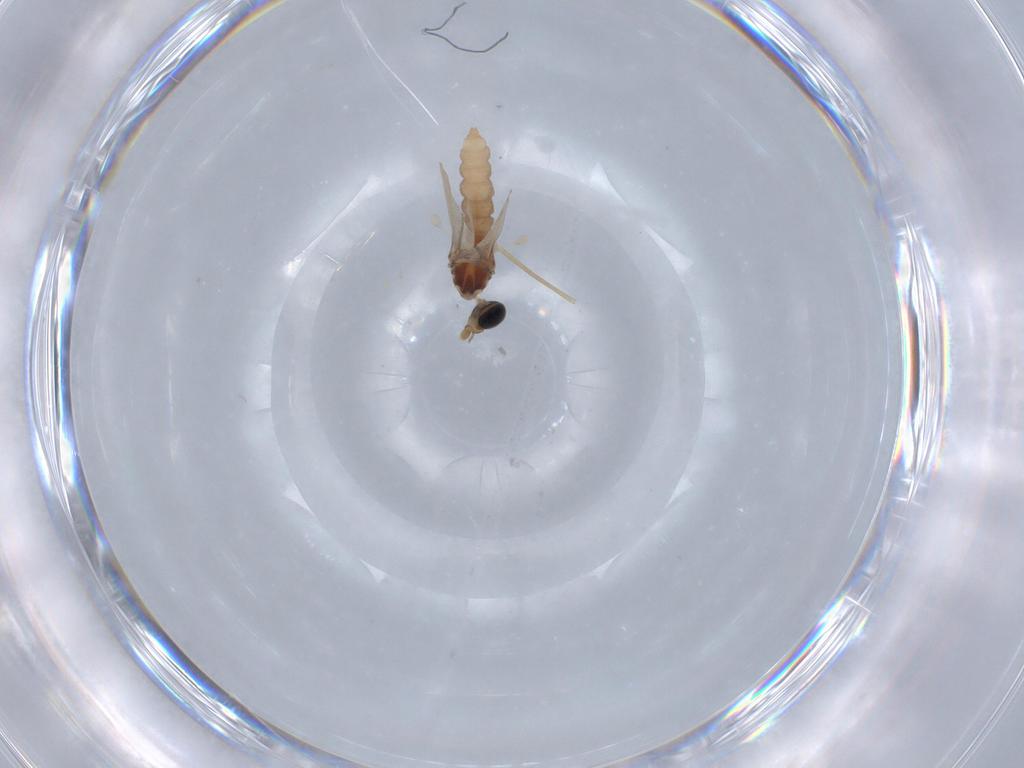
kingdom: Animalia
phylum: Arthropoda
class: Insecta
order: Diptera
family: Cecidomyiidae
